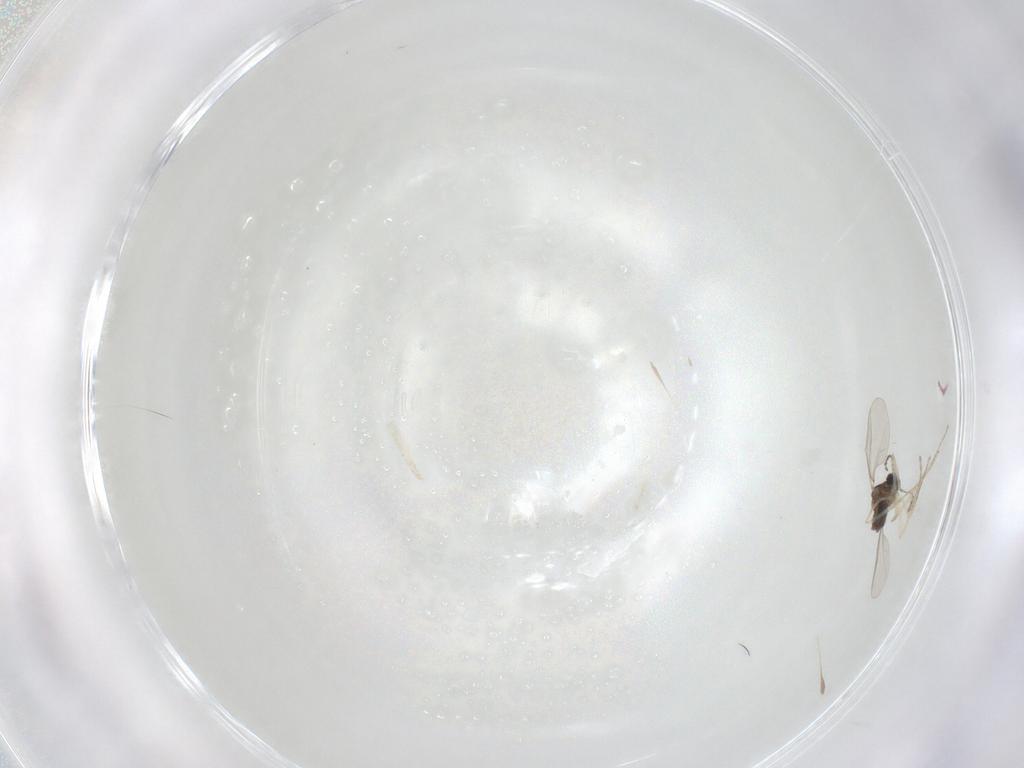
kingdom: Animalia
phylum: Arthropoda
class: Insecta
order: Diptera
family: Cecidomyiidae
